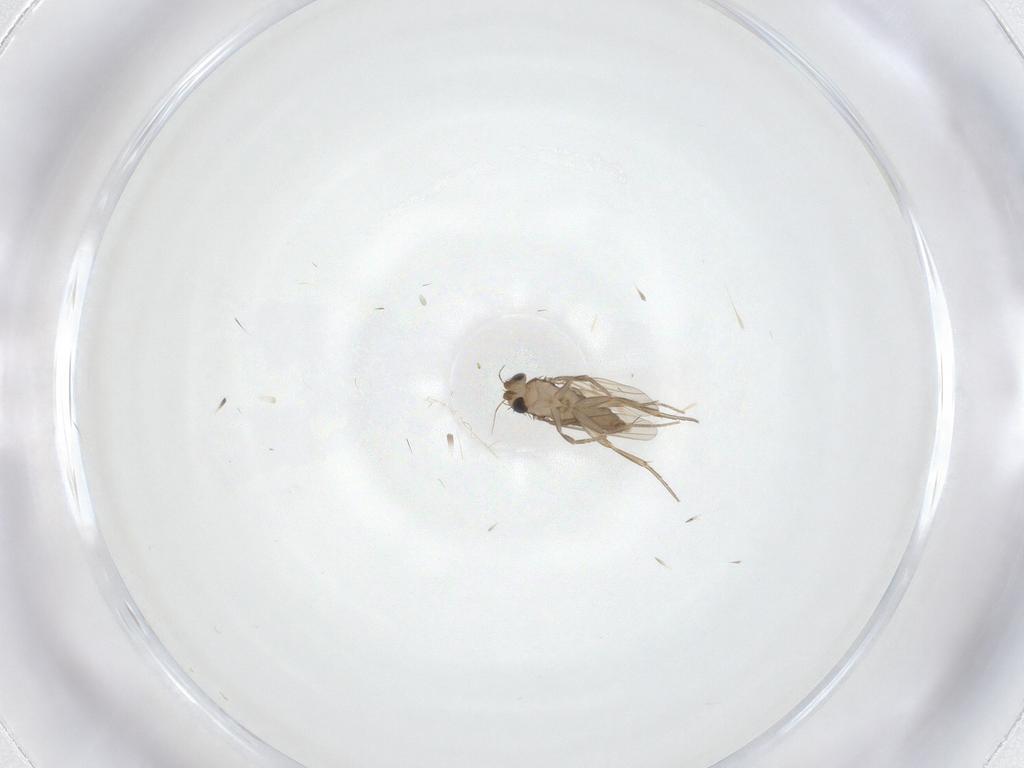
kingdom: Animalia
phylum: Arthropoda
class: Insecta
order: Diptera
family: Phoridae
